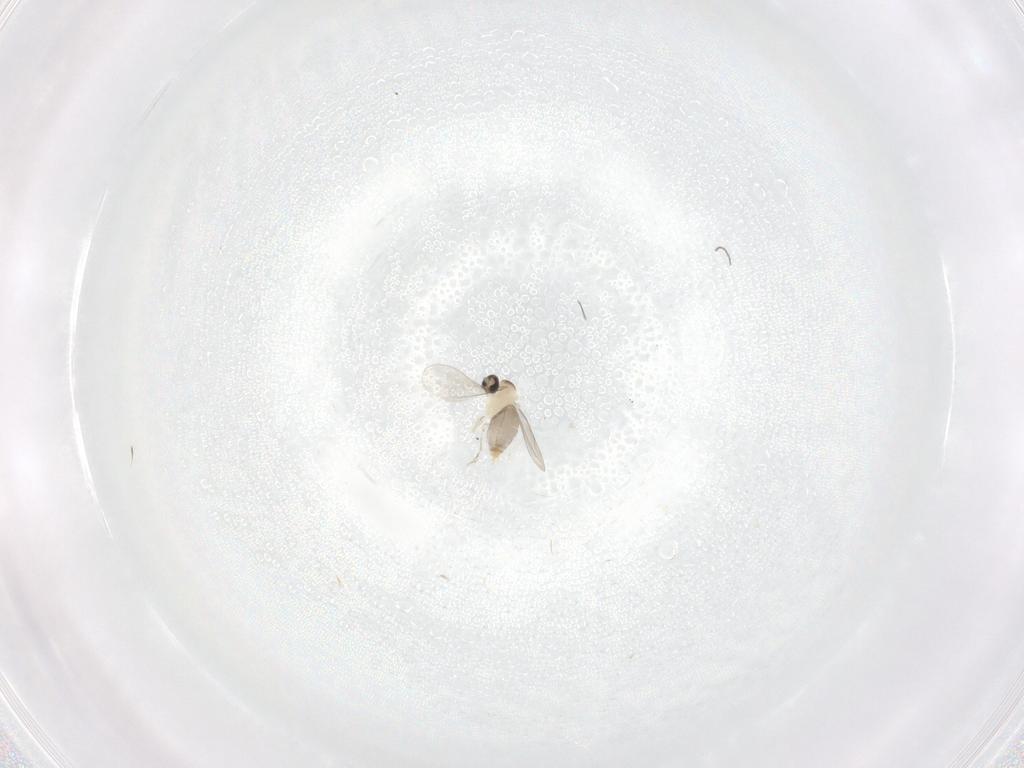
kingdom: Animalia
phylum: Arthropoda
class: Insecta
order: Diptera
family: Cecidomyiidae
